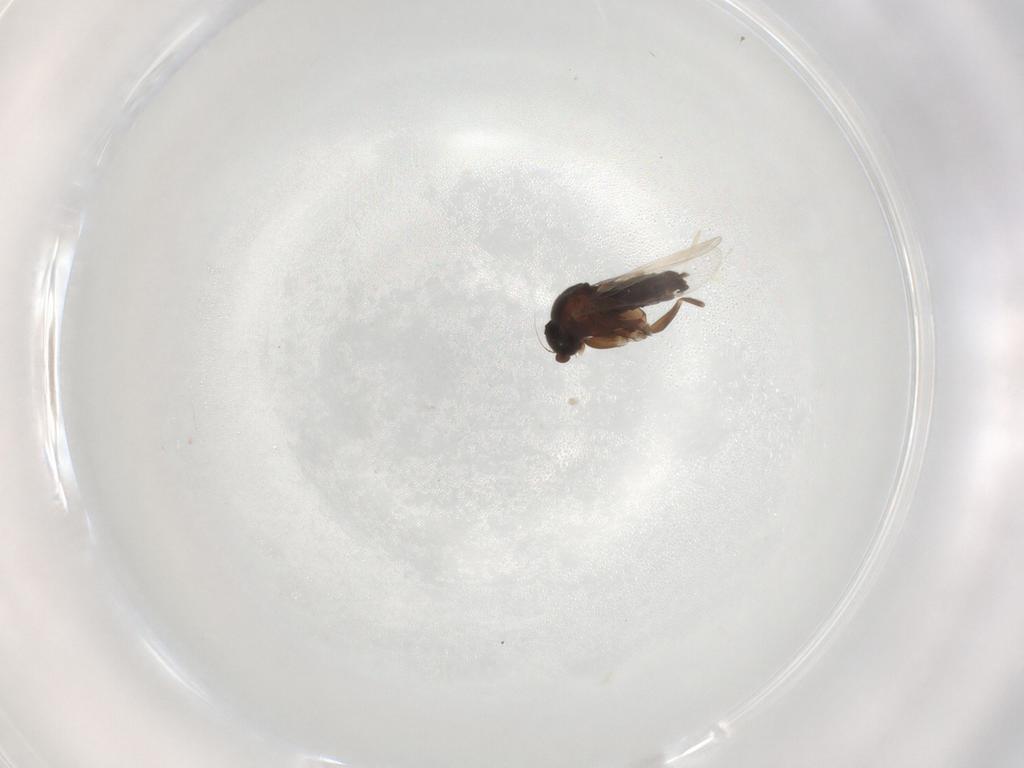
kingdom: Animalia
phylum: Arthropoda
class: Insecta
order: Diptera
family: Phoridae
